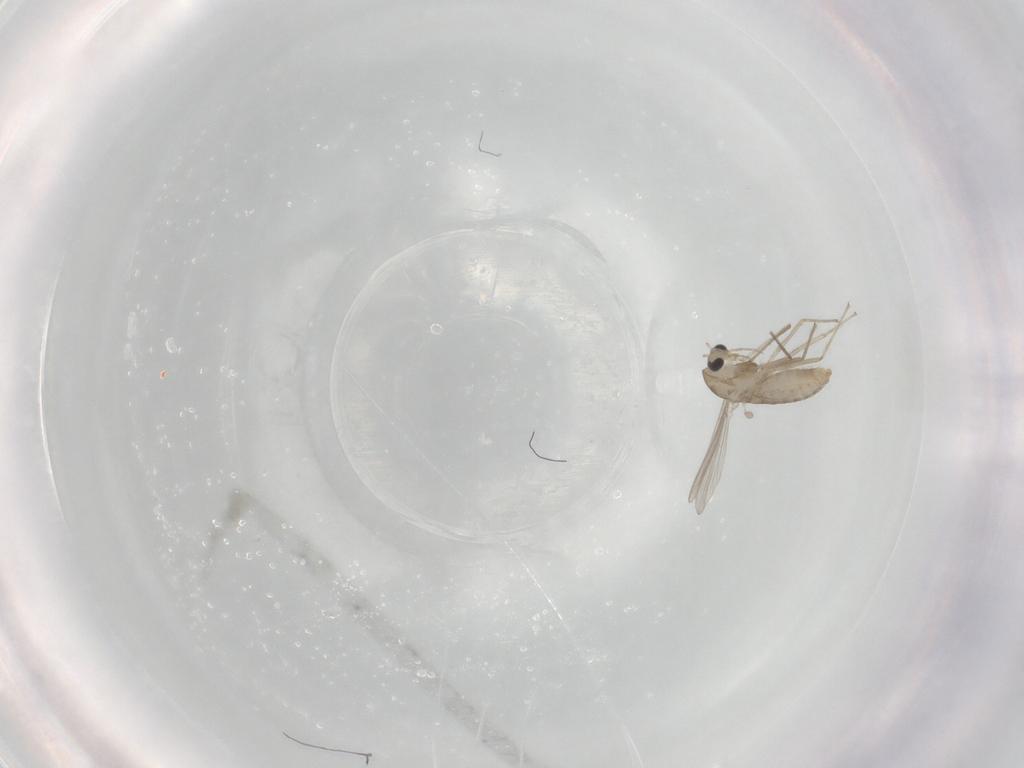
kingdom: Animalia
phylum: Arthropoda
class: Insecta
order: Diptera
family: Chironomidae
